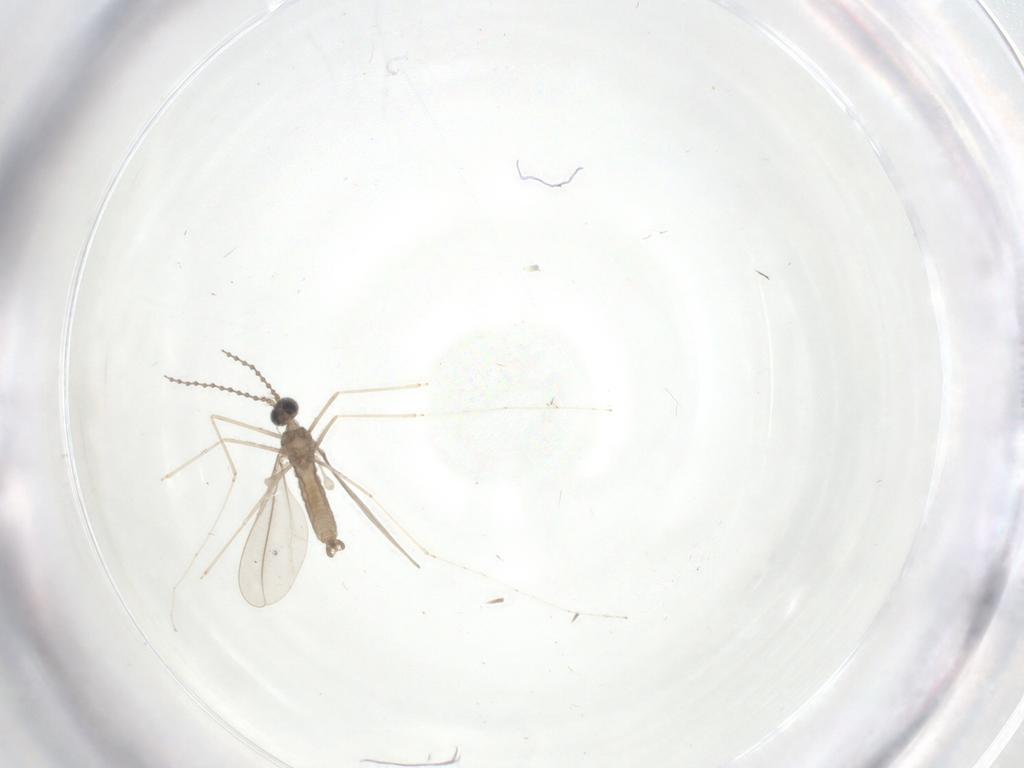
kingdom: Animalia
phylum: Arthropoda
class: Insecta
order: Diptera
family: Cecidomyiidae
